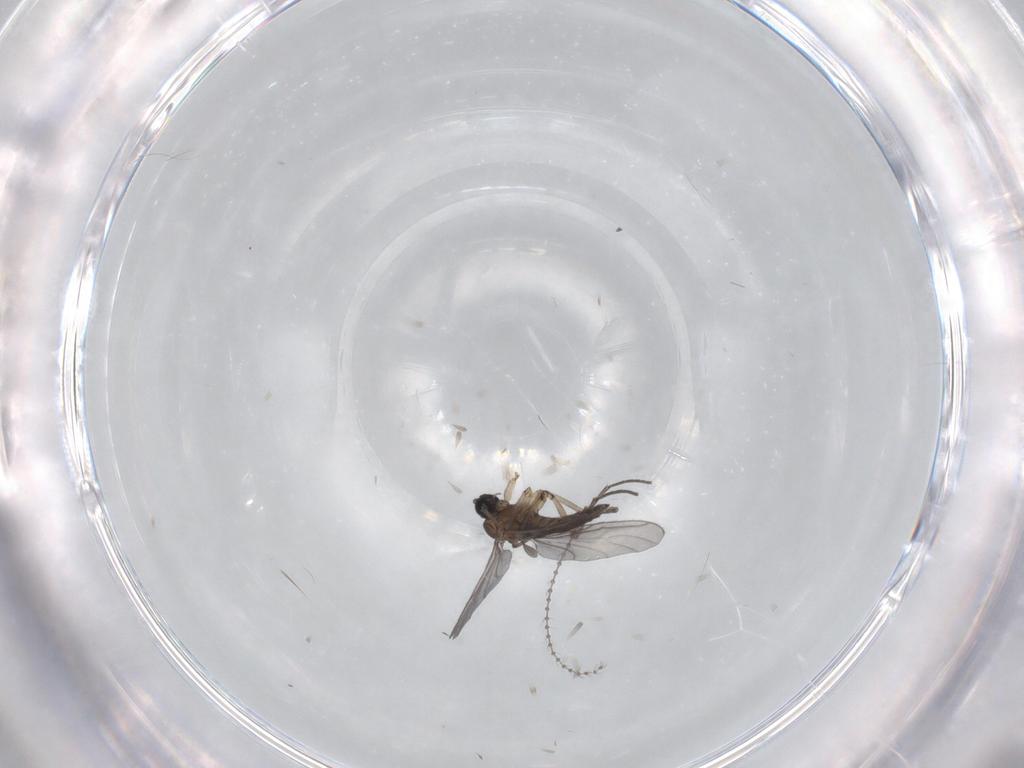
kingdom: Animalia
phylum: Arthropoda
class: Insecta
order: Diptera
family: Sciaridae
